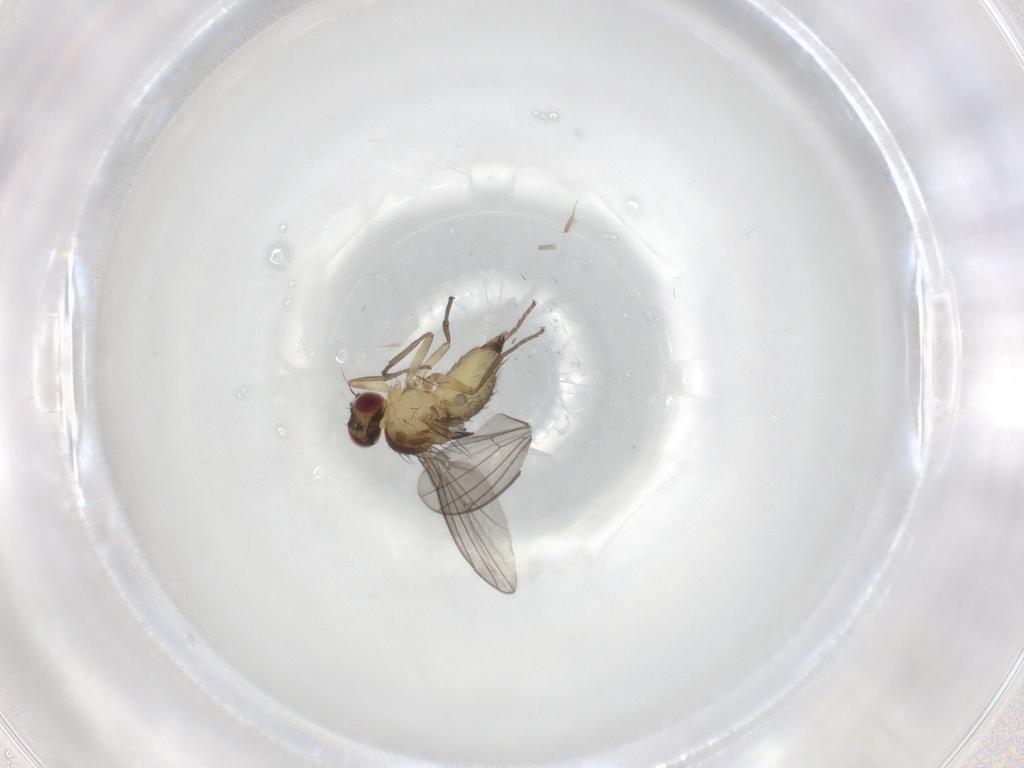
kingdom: Animalia
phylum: Arthropoda
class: Insecta
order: Diptera
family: Agromyzidae
